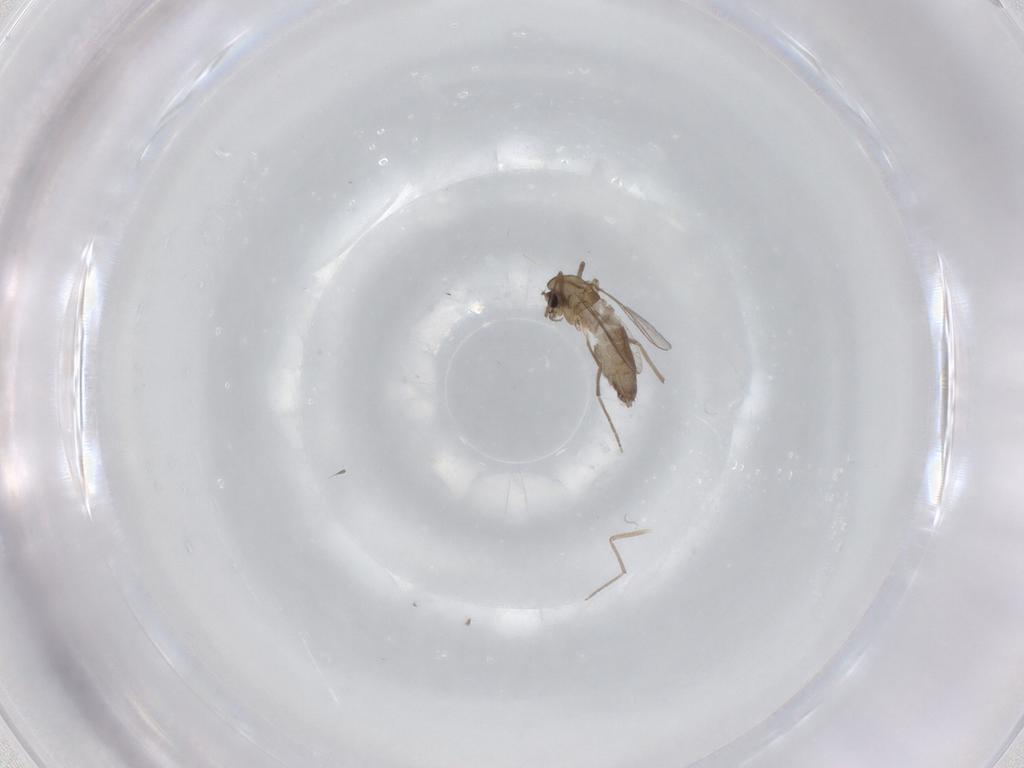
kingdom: Animalia
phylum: Arthropoda
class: Insecta
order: Diptera
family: Chironomidae
